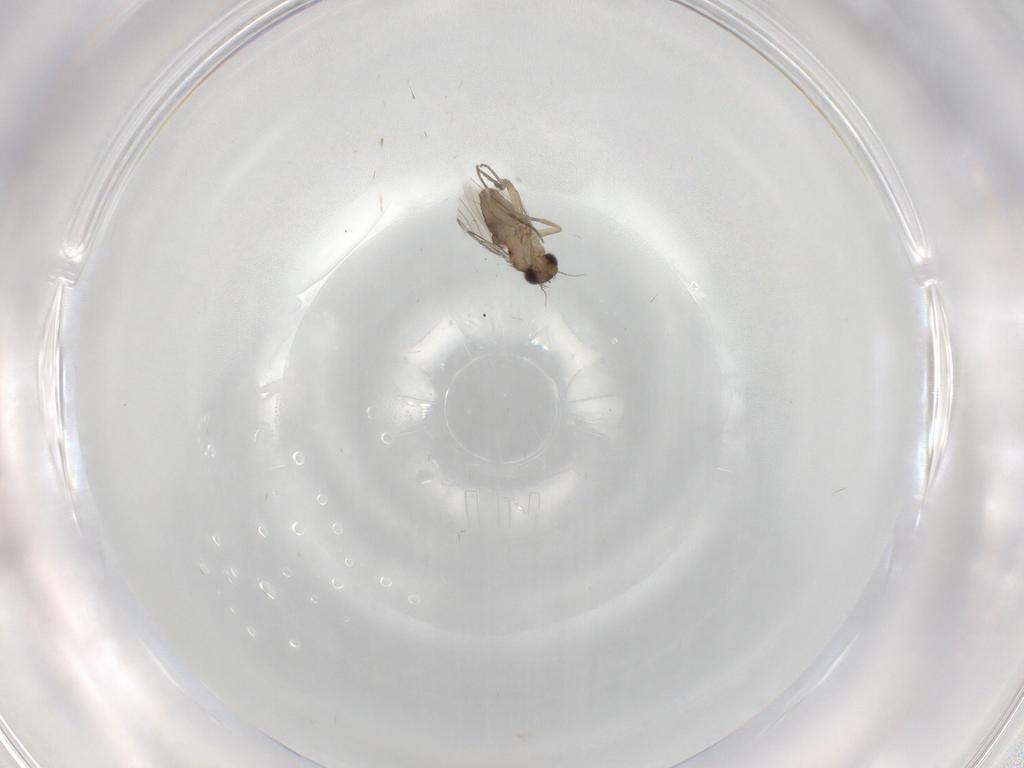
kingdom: Animalia
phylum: Arthropoda
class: Insecta
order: Diptera
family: Phoridae
